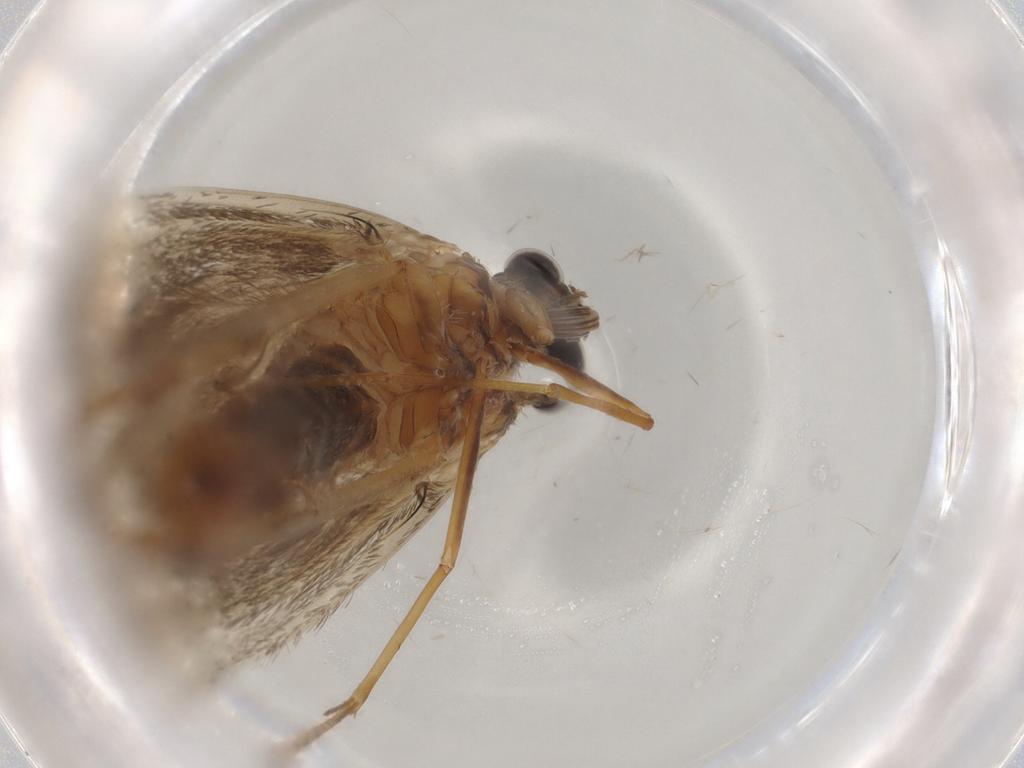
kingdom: Animalia
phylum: Arthropoda
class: Insecta
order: Lepidoptera
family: Adelidae
